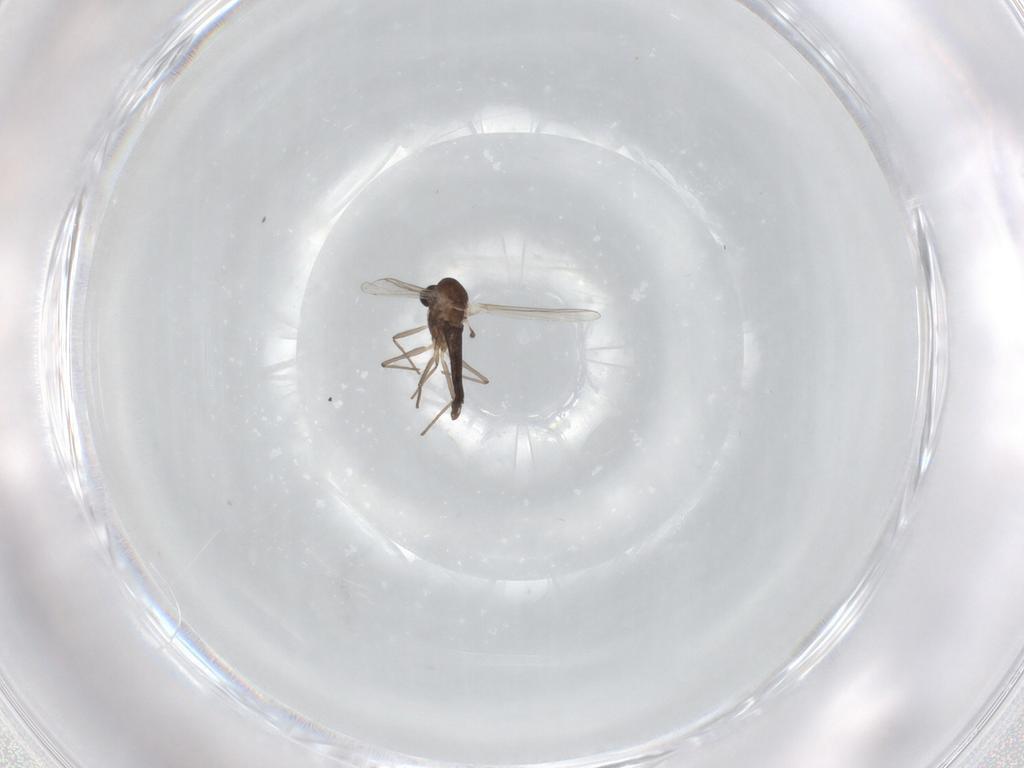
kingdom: Animalia
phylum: Arthropoda
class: Insecta
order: Diptera
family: Chironomidae
